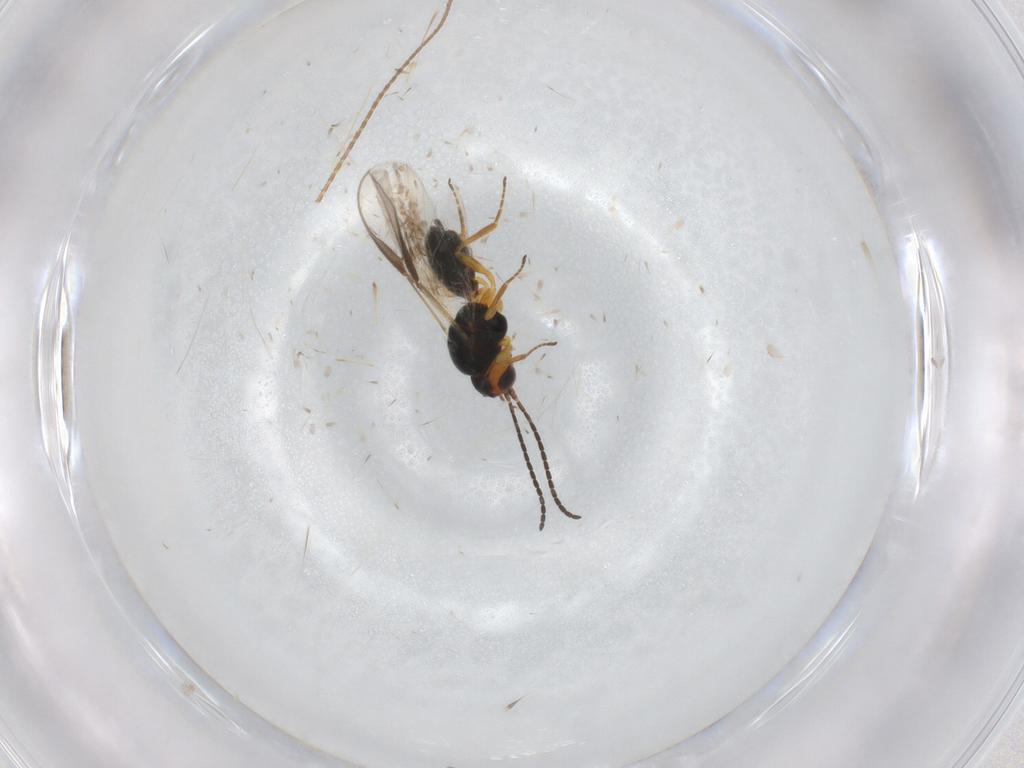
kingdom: Animalia
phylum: Arthropoda
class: Insecta
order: Hymenoptera
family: Braconidae
